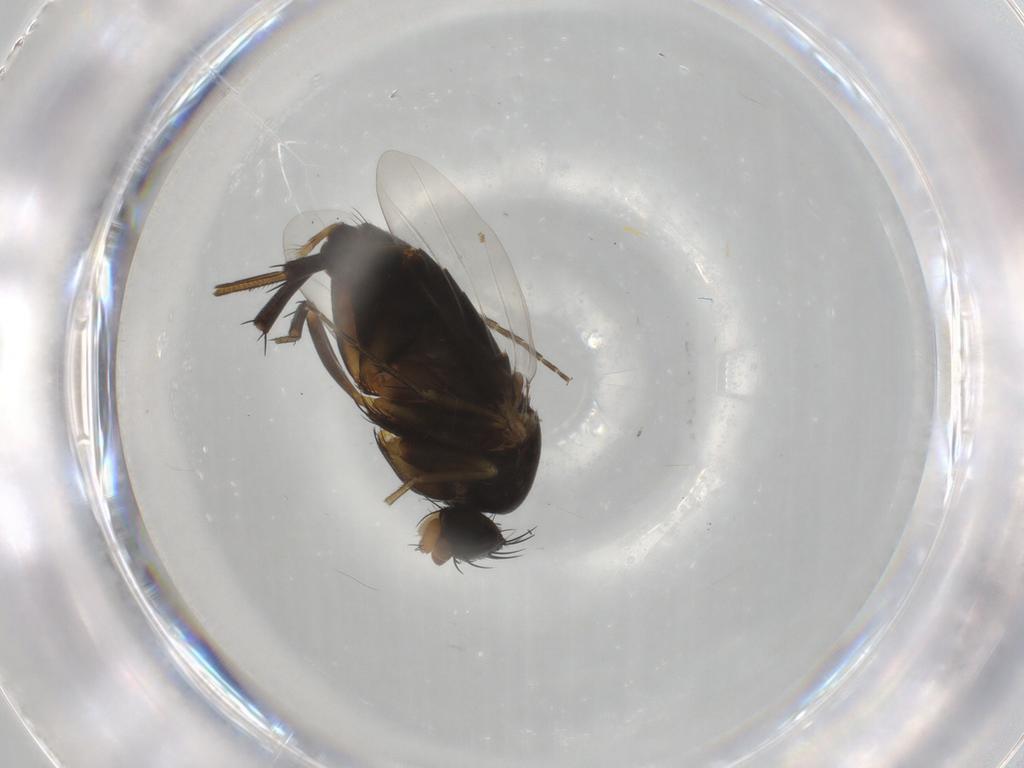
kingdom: Animalia
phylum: Arthropoda
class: Insecta
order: Diptera
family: Phoridae
